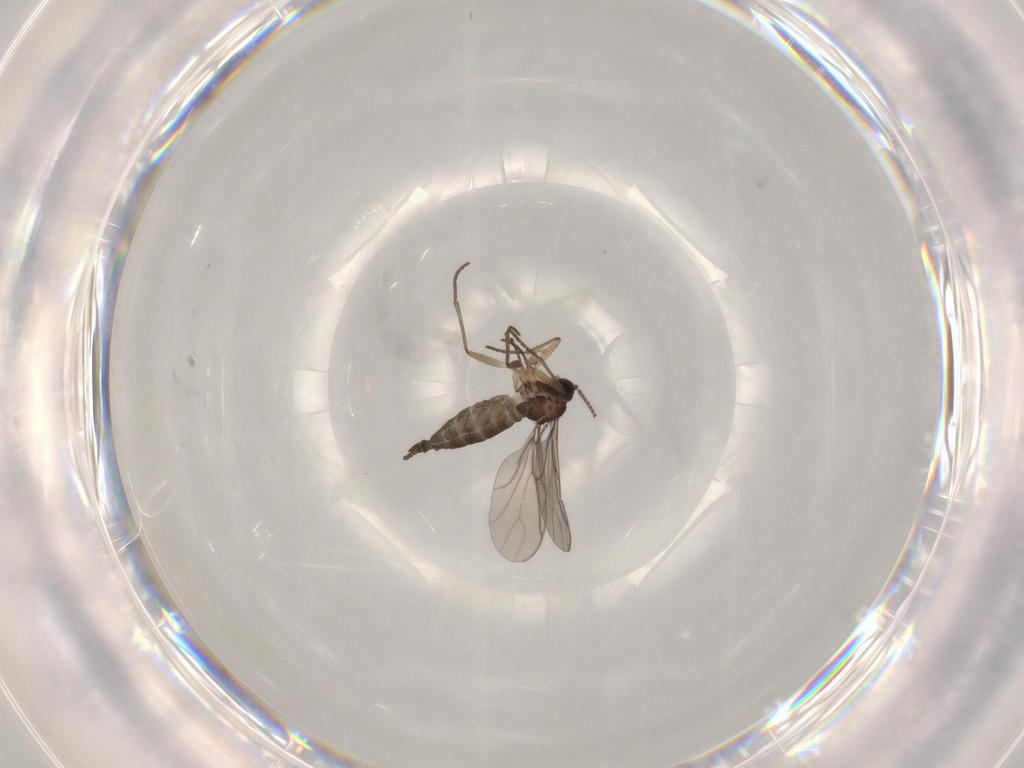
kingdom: Animalia
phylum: Arthropoda
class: Insecta
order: Diptera
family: Sciaridae
